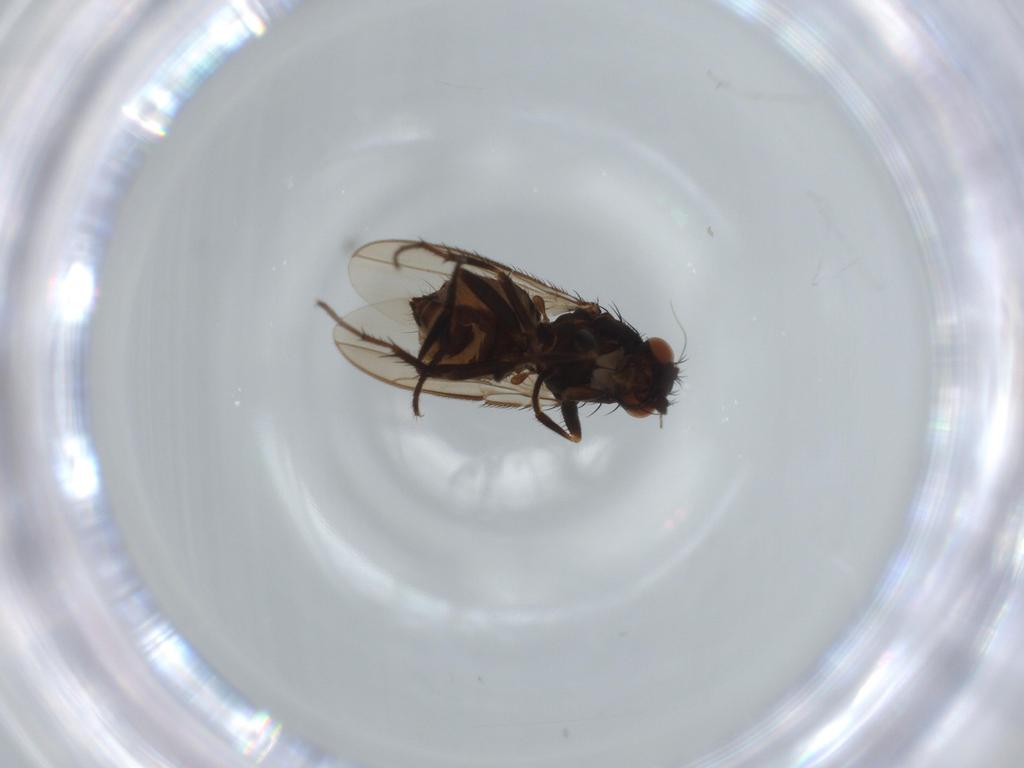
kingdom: Animalia
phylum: Arthropoda
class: Insecta
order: Diptera
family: Sphaeroceridae
